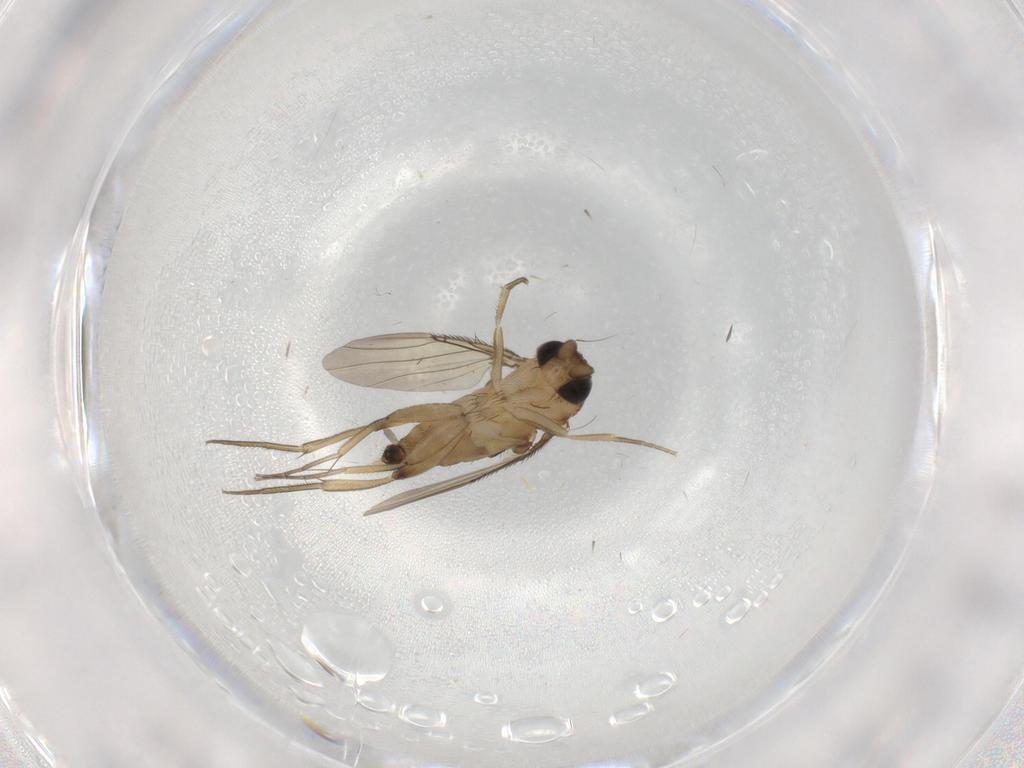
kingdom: Animalia
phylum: Arthropoda
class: Insecta
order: Diptera
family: Phoridae
